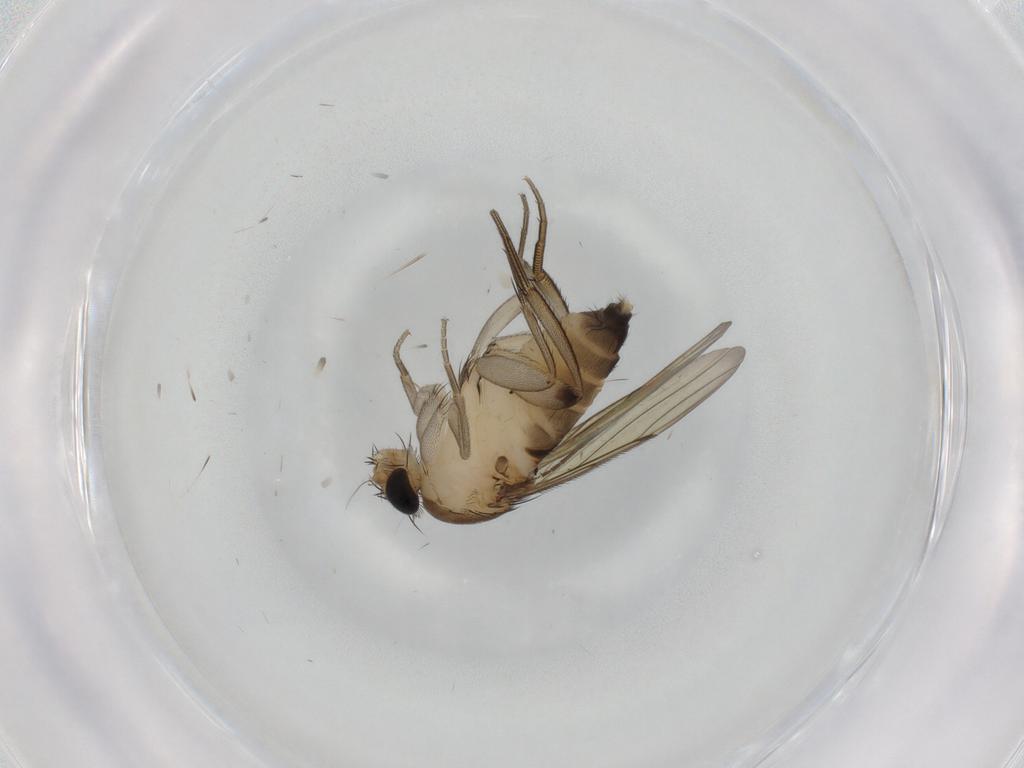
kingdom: Animalia
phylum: Arthropoda
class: Insecta
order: Diptera
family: Phoridae
